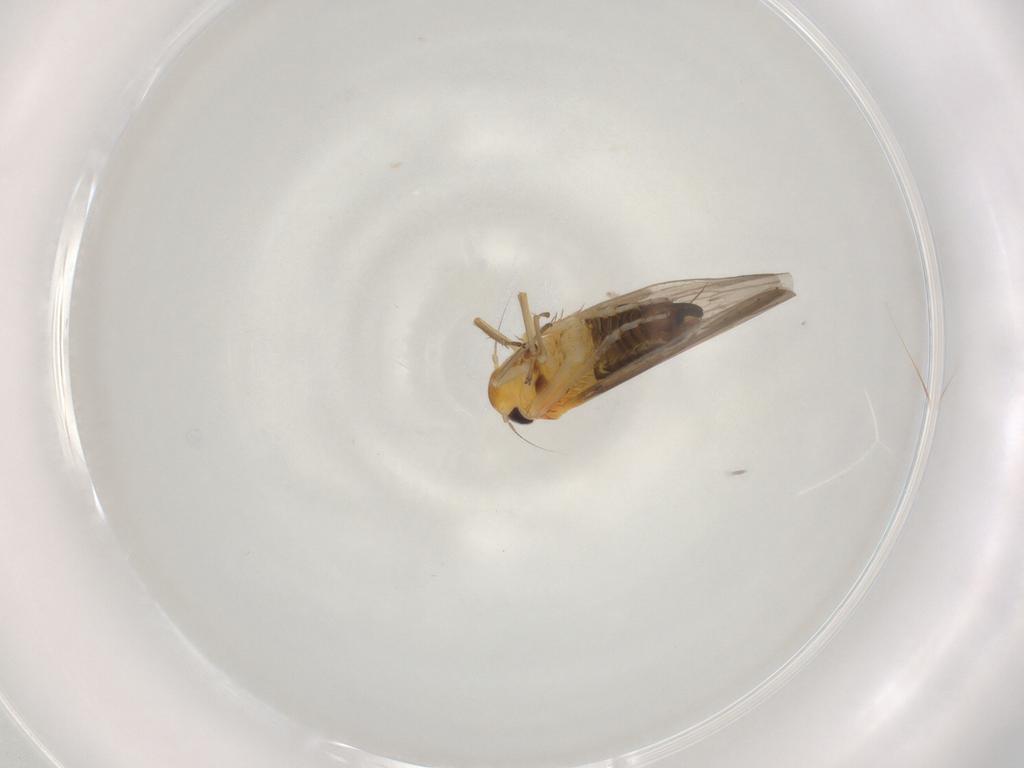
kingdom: Animalia
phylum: Arthropoda
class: Insecta
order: Hemiptera
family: Cicadellidae
